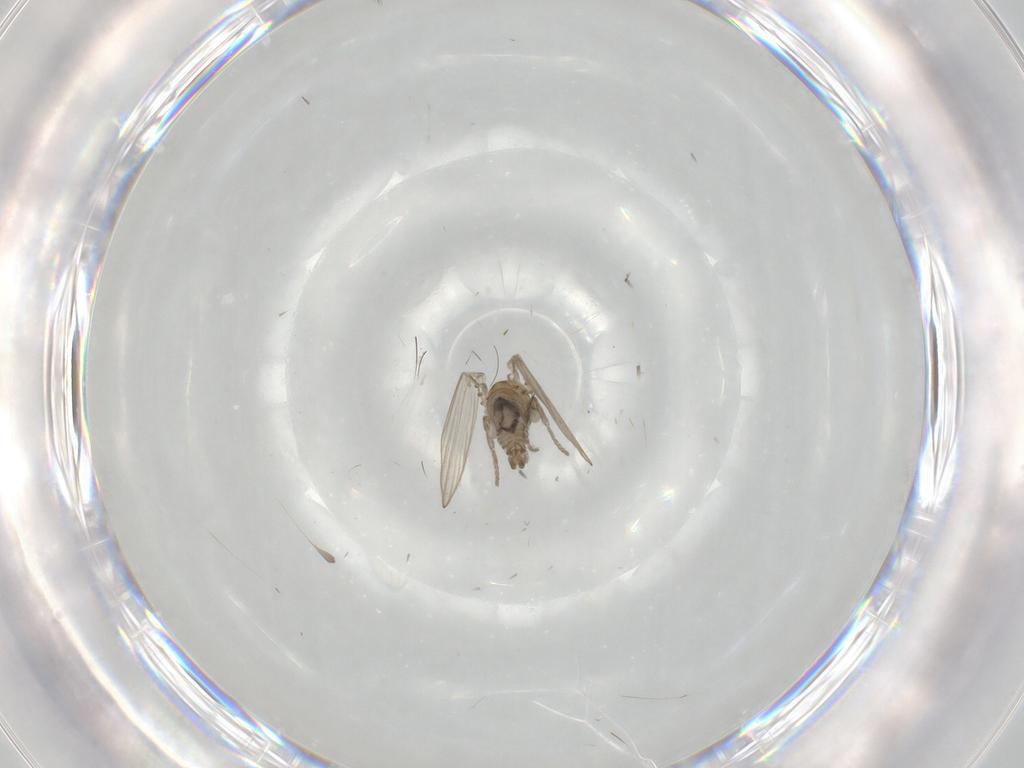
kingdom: Animalia
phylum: Arthropoda
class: Insecta
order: Diptera
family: Psychodidae
